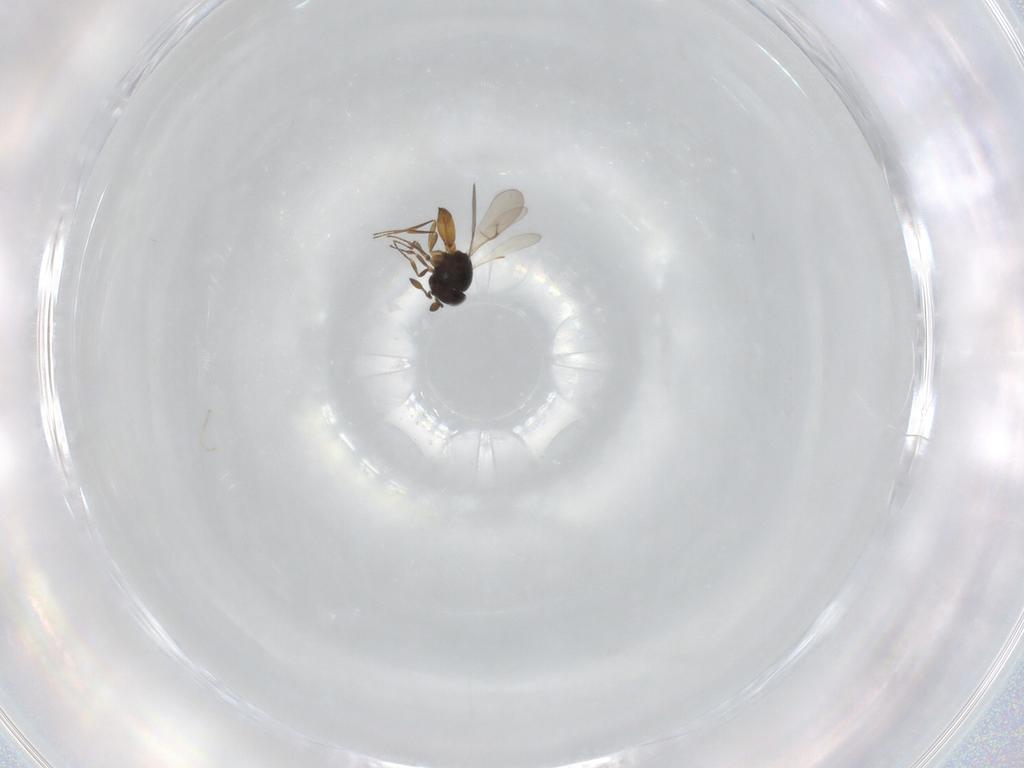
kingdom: Animalia
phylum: Arthropoda
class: Arachnida
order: Araneae
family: Pholcidae
